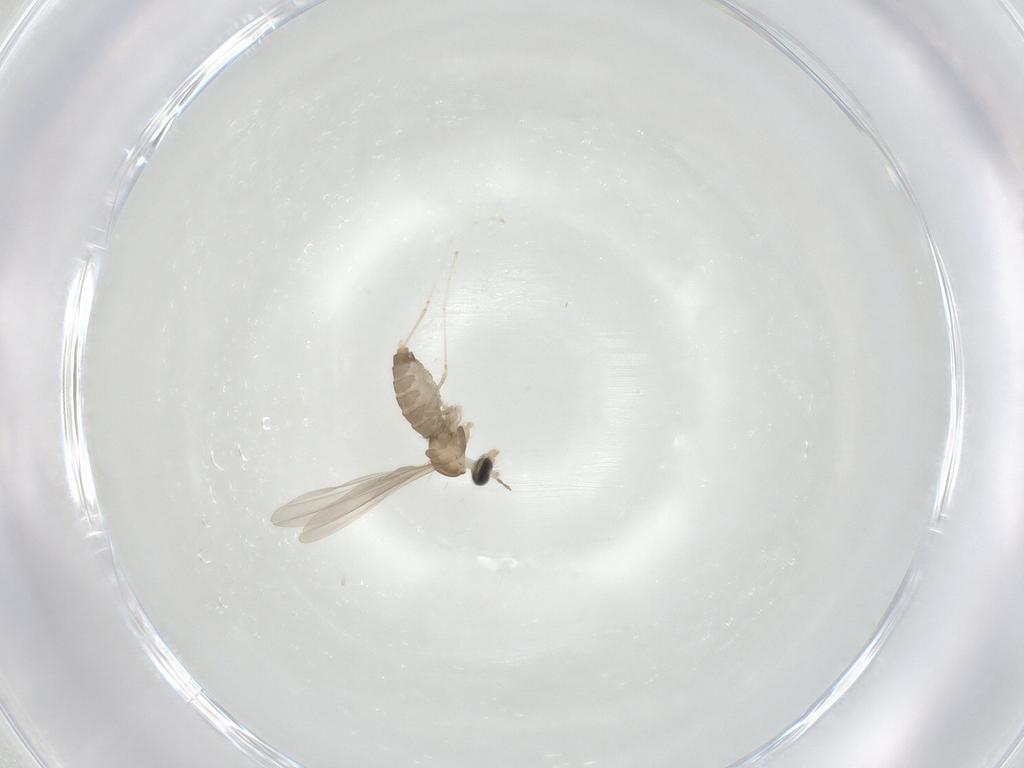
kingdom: Animalia
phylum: Arthropoda
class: Insecta
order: Diptera
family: Cecidomyiidae
